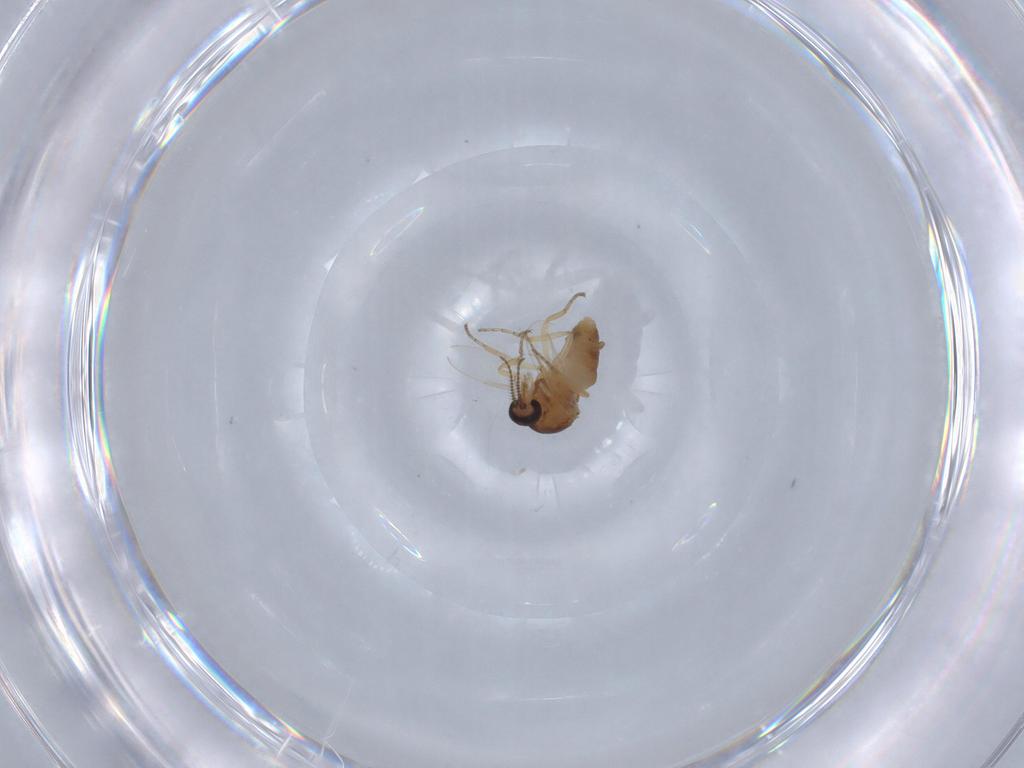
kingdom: Animalia
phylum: Arthropoda
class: Insecta
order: Diptera
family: Ceratopogonidae
